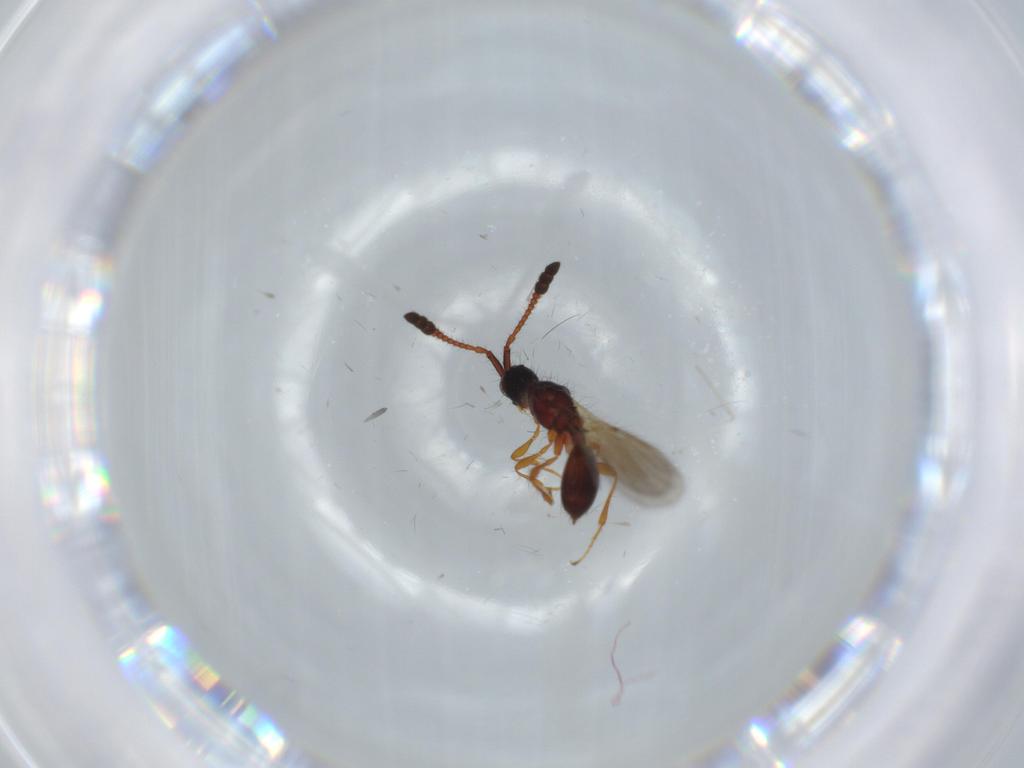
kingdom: Animalia
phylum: Arthropoda
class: Insecta
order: Hymenoptera
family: Diapriidae
